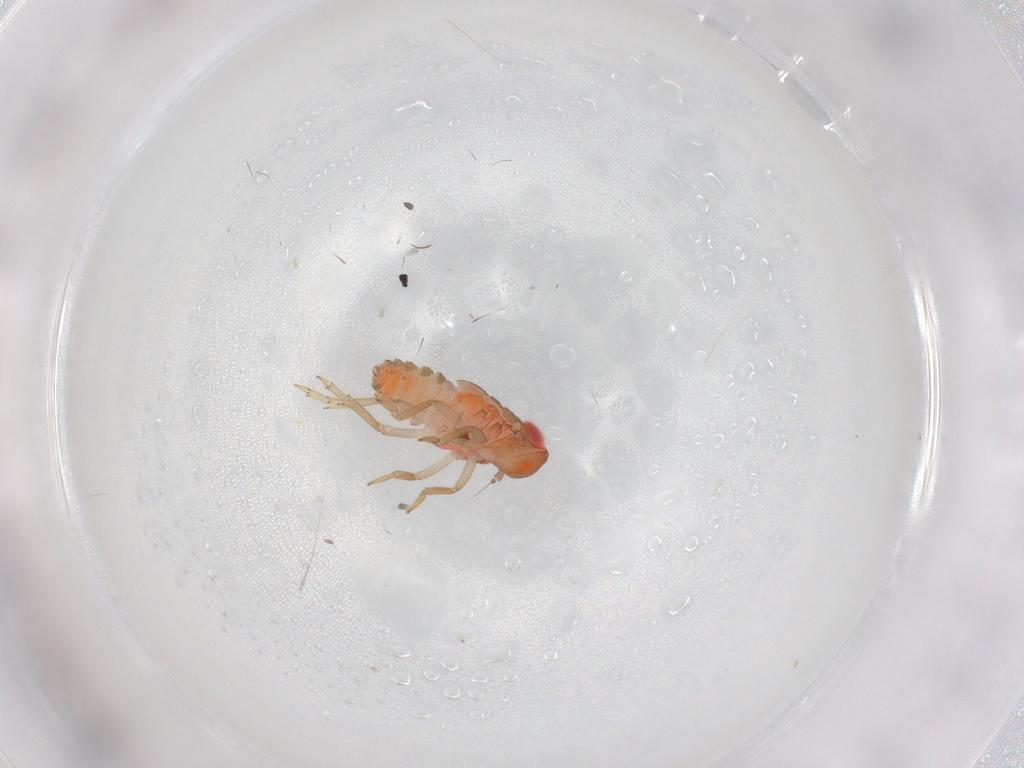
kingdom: Animalia
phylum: Arthropoda
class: Insecta
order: Hemiptera
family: Fulgoroidea_incertae_sedis
